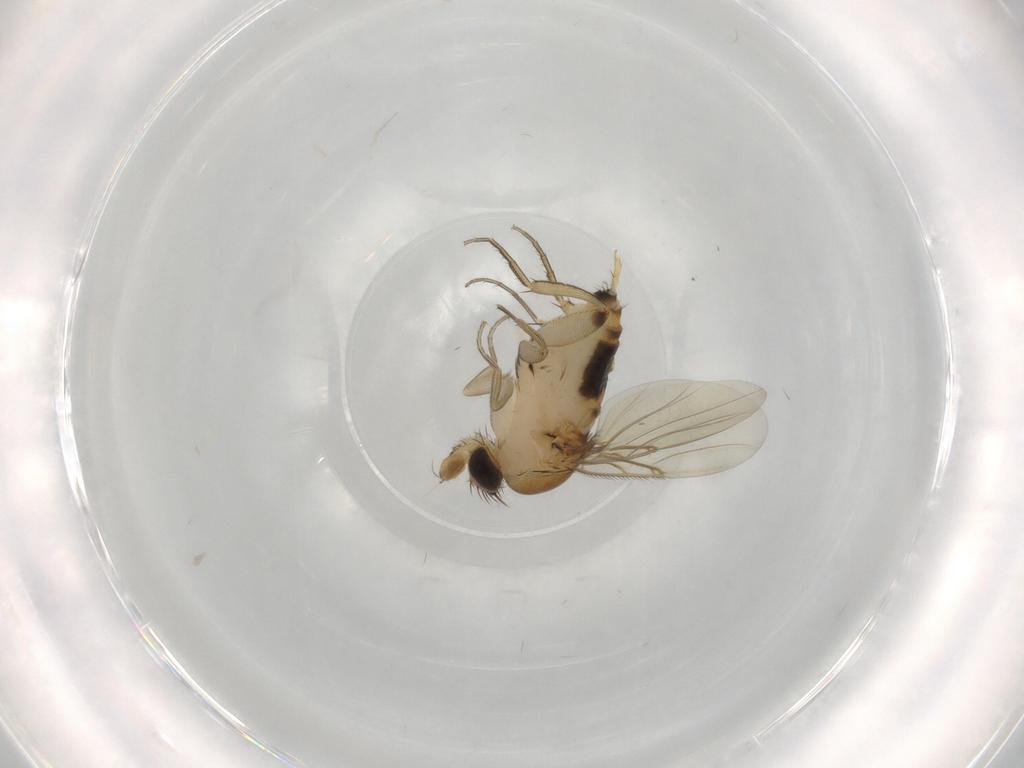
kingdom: Animalia
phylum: Arthropoda
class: Insecta
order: Diptera
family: Phoridae
